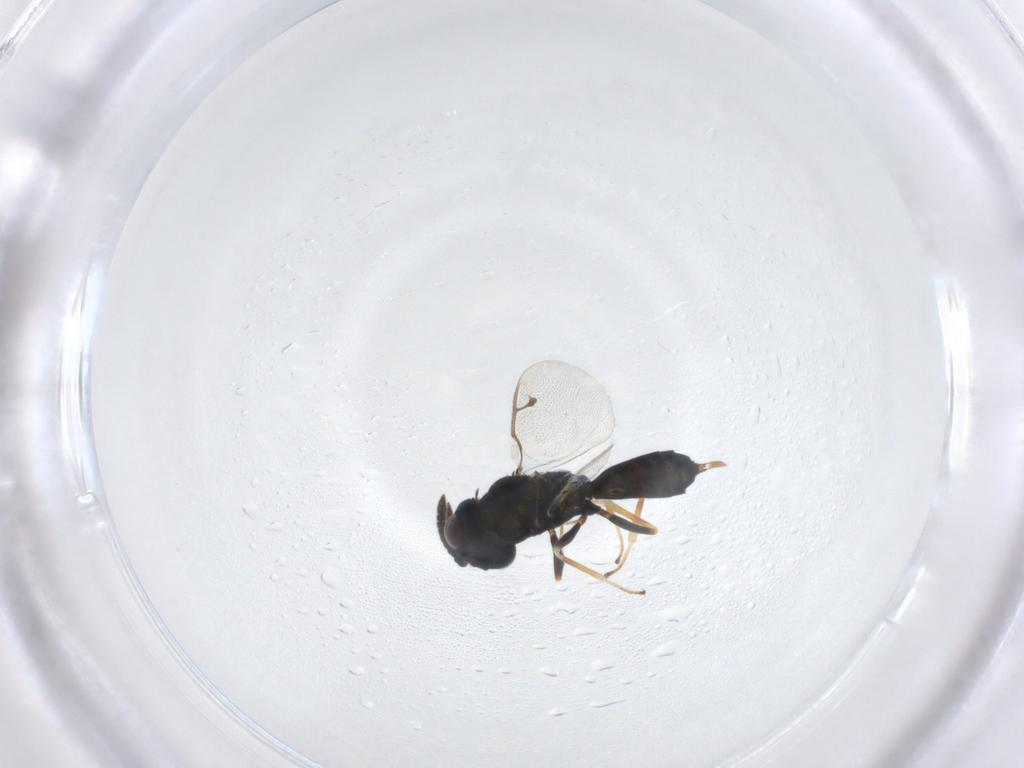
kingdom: Animalia
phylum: Arthropoda
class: Insecta
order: Hymenoptera
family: Pteromalidae
